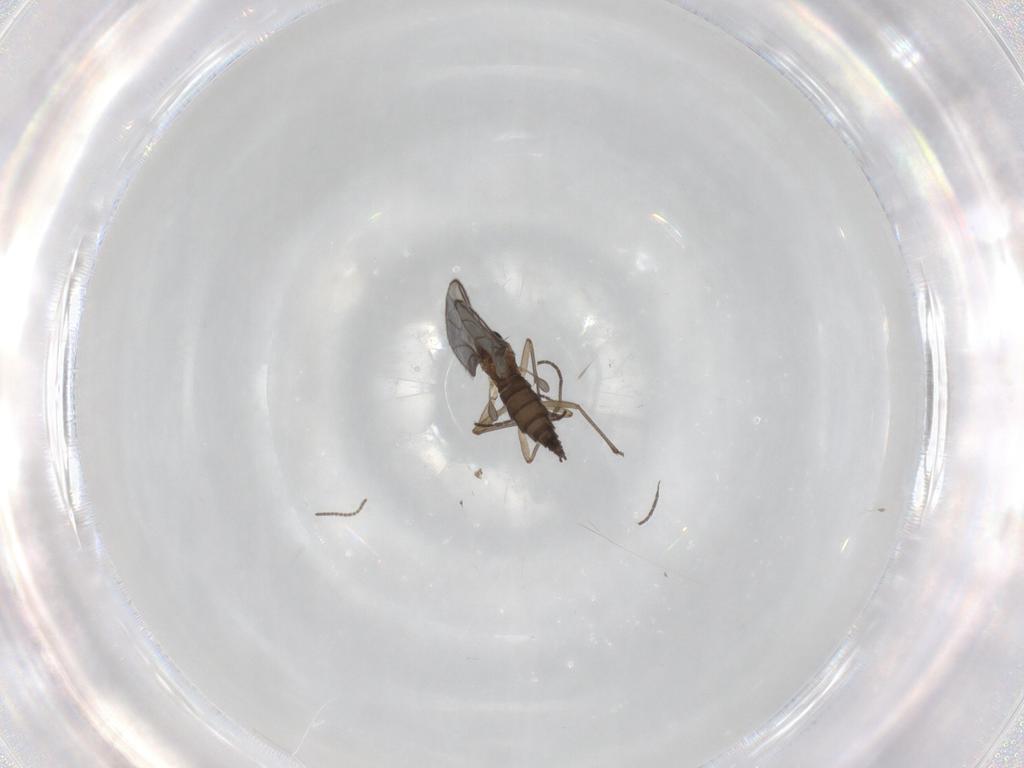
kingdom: Animalia
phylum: Arthropoda
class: Insecta
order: Diptera
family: Sciaridae
